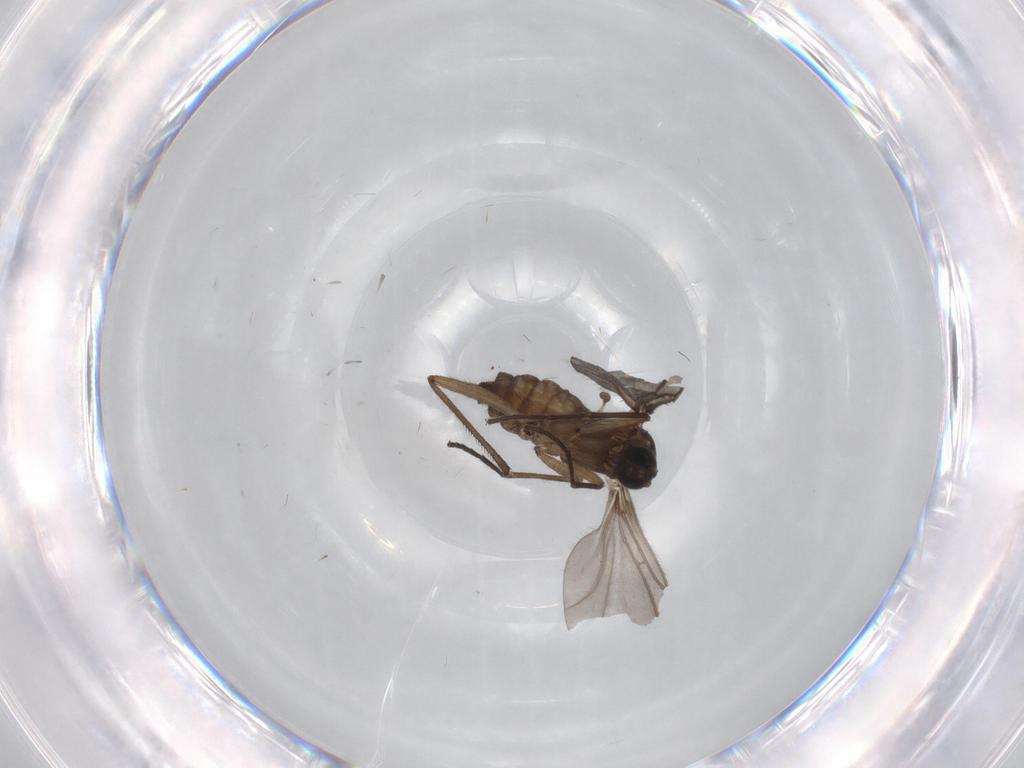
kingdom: Animalia
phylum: Arthropoda
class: Insecta
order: Diptera
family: Sciaridae
